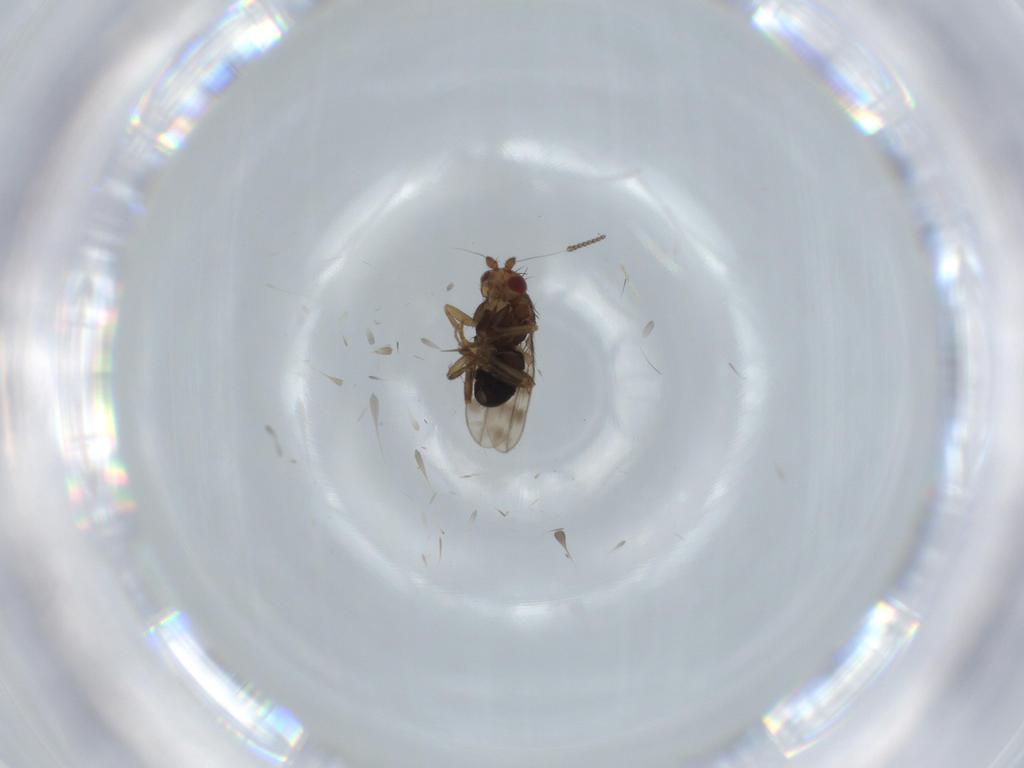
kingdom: Animalia
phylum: Arthropoda
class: Insecta
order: Diptera
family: Sphaeroceridae
